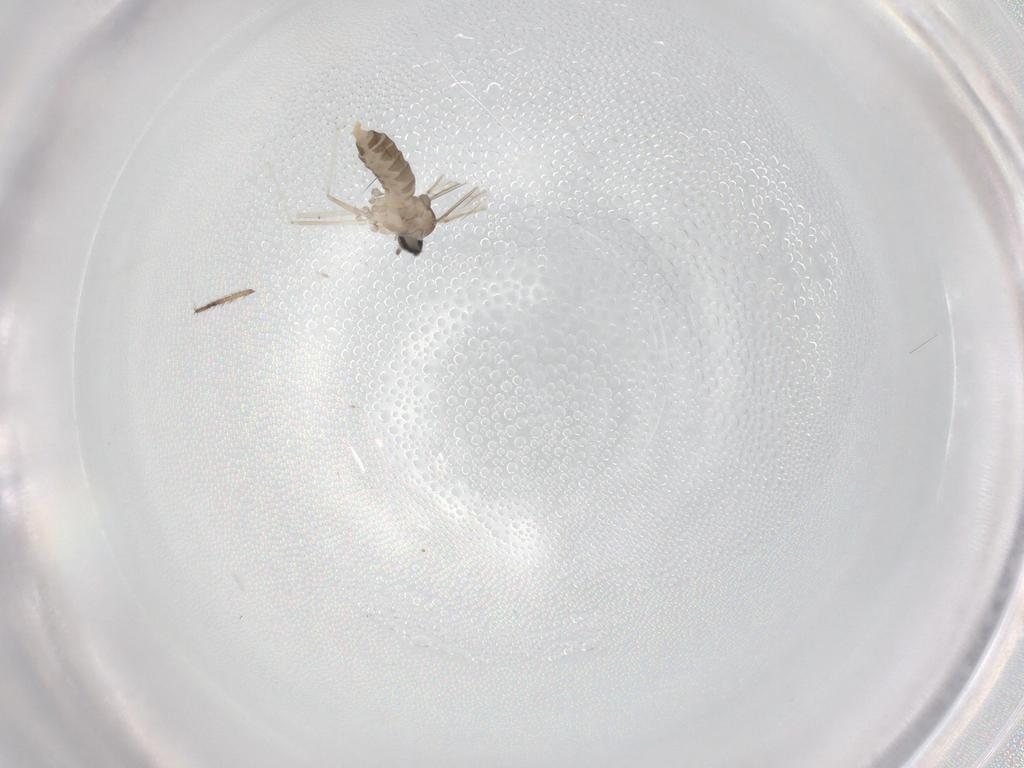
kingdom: Animalia
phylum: Arthropoda
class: Insecta
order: Diptera
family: Cecidomyiidae
